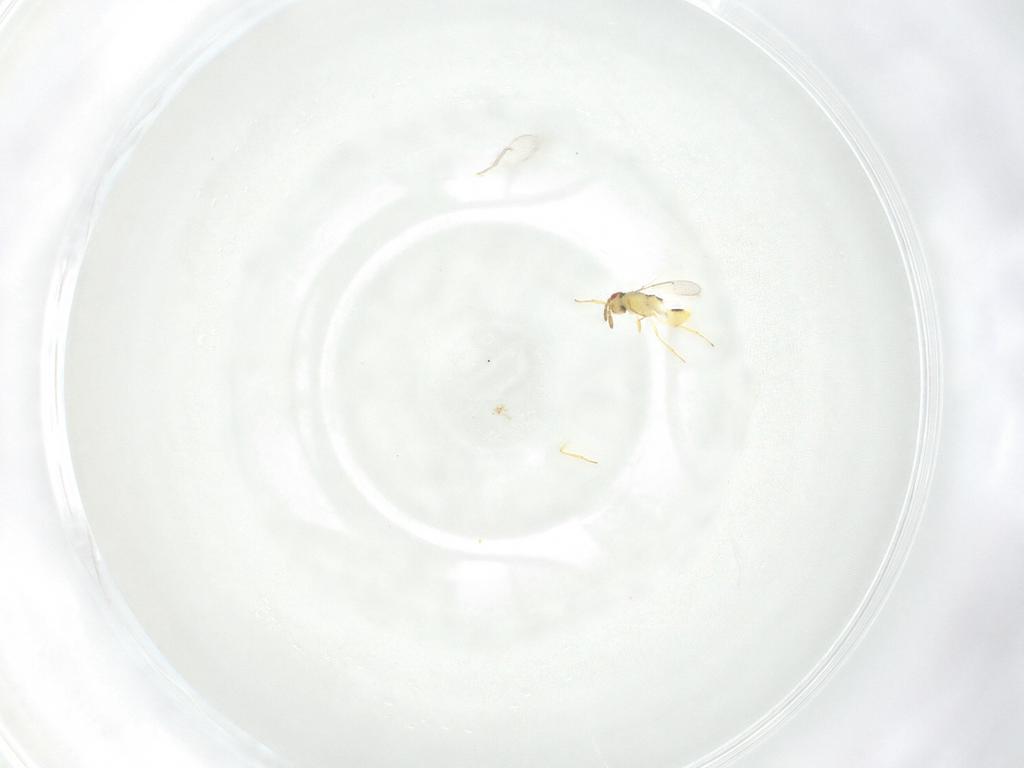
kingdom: Animalia
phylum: Arthropoda
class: Insecta
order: Hymenoptera
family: Aphelinidae
